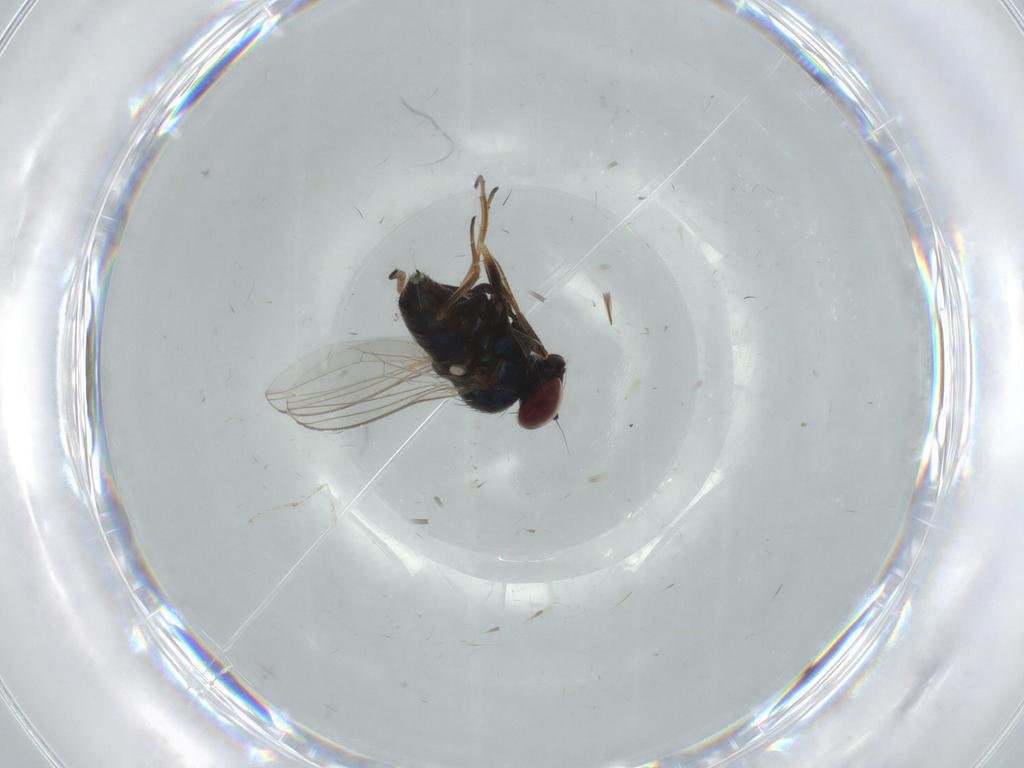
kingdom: Animalia
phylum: Arthropoda
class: Insecta
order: Diptera
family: Dolichopodidae
